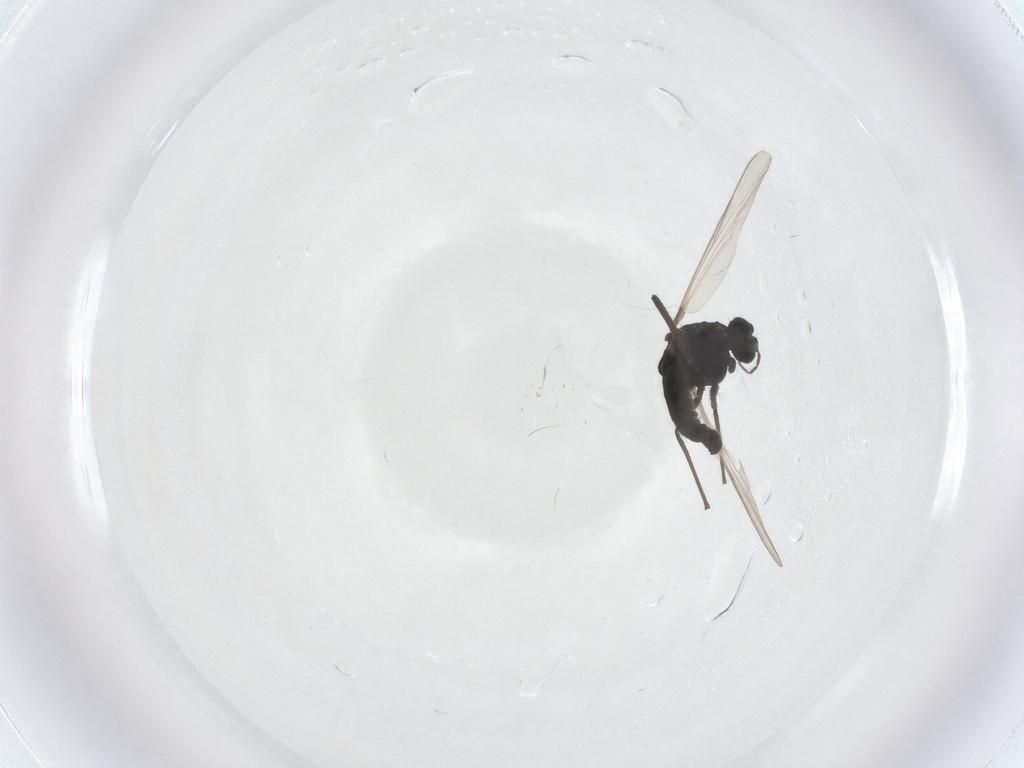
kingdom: Animalia
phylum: Arthropoda
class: Insecta
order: Diptera
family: Chironomidae
